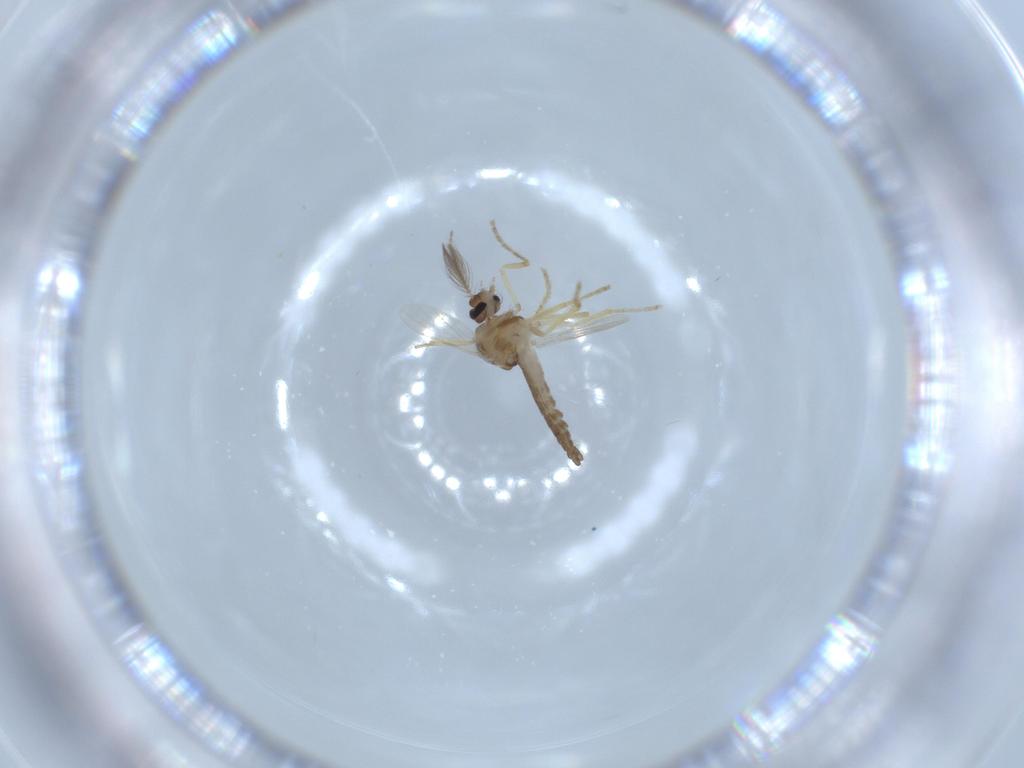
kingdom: Animalia
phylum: Arthropoda
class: Insecta
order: Diptera
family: Ceratopogonidae
